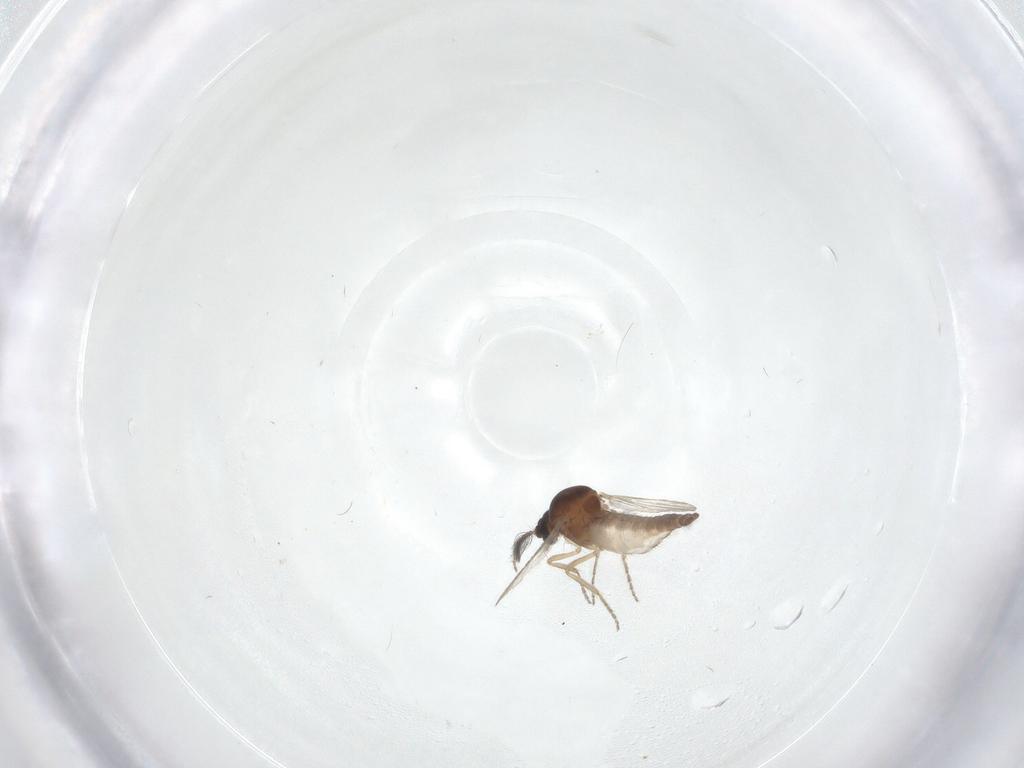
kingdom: Animalia
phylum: Arthropoda
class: Insecta
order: Diptera
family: Ceratopogonidae
